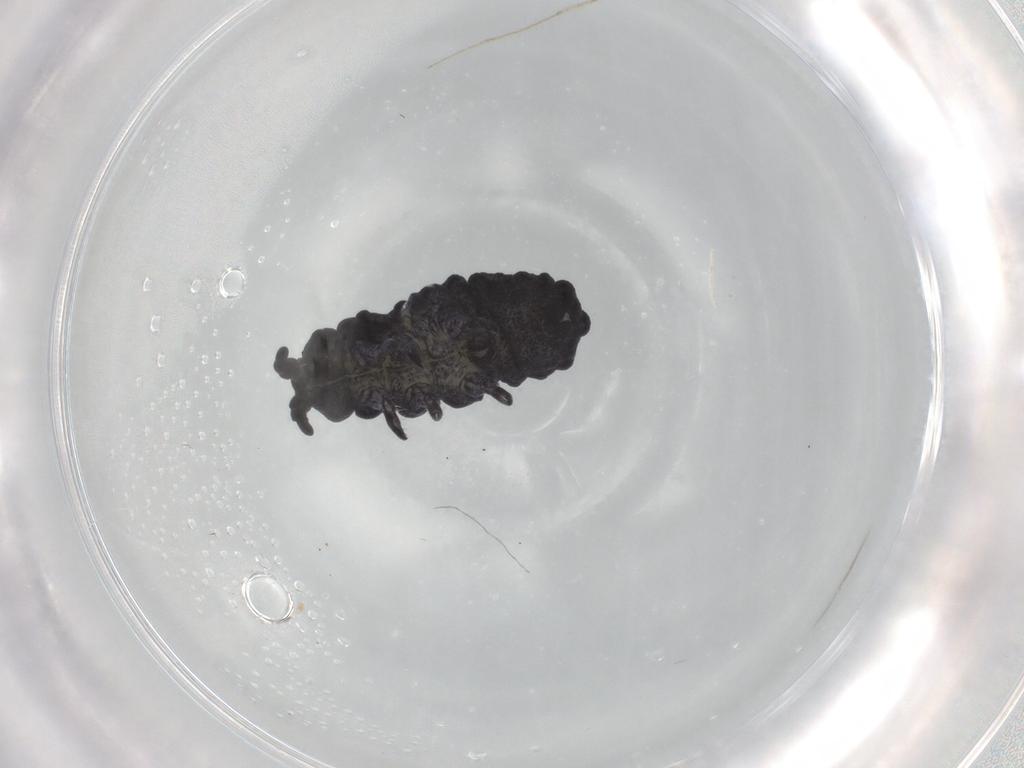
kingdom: Animalia
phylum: Arthropoda
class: Collembola
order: Poduromorpha
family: Neanuridae
